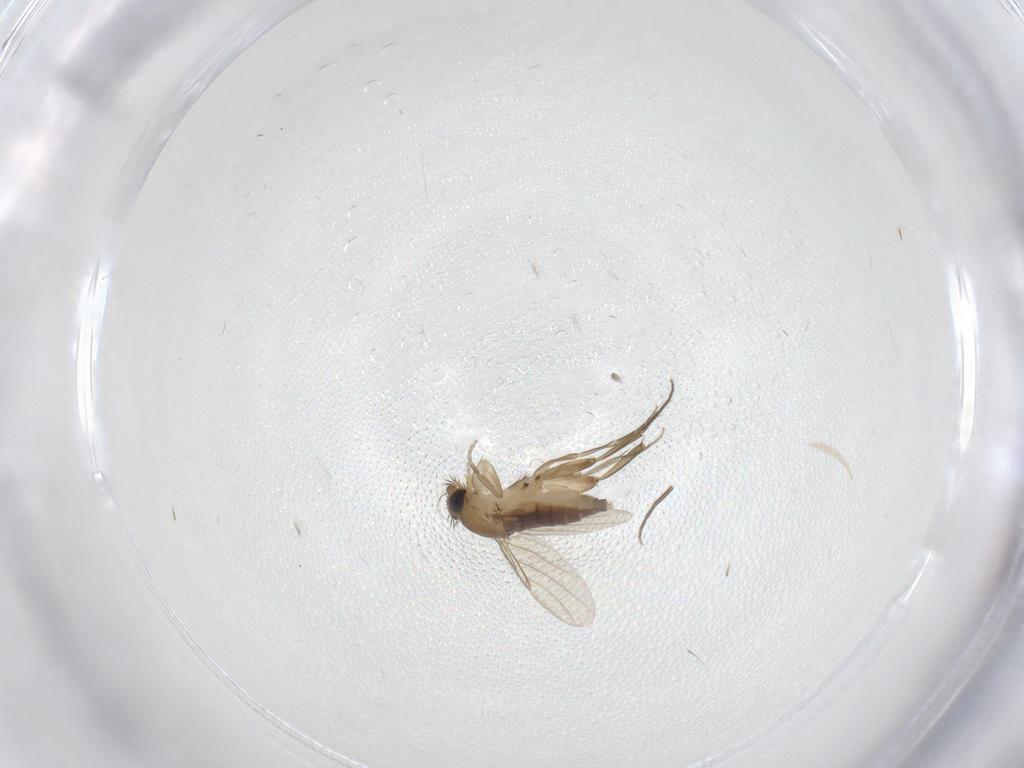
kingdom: Animalia
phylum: Arthropoda
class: Insecta
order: Diptera
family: Phoridae
